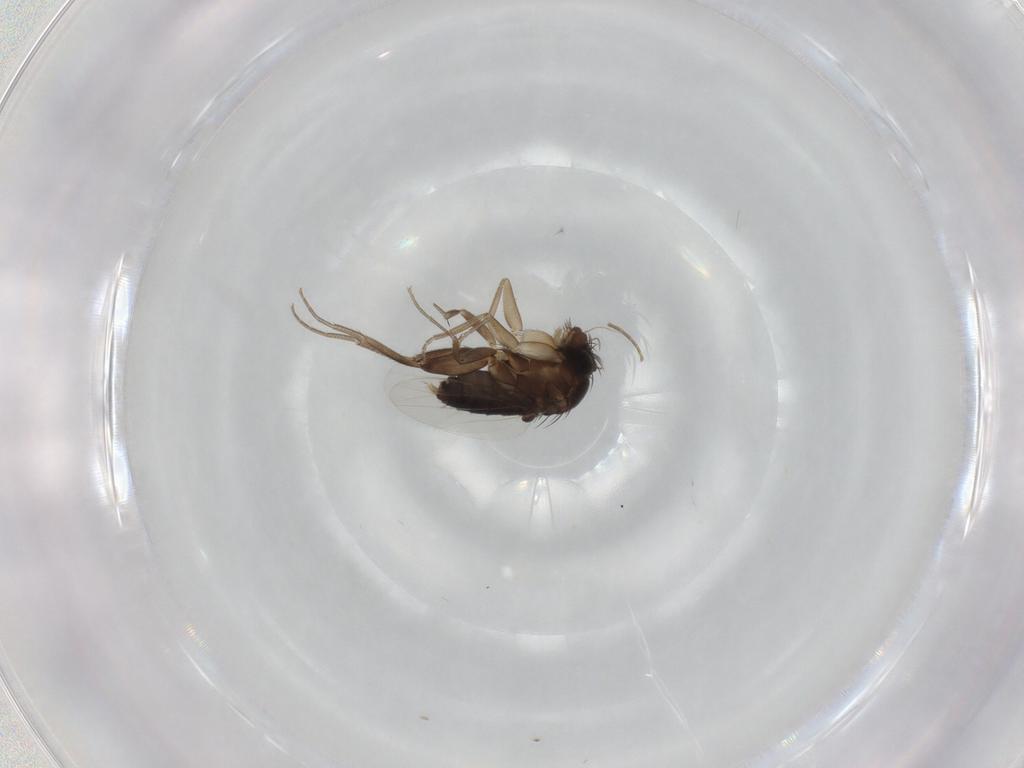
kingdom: Animalia
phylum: Arthropoda
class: Insecta
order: Diptera
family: Phoridae
